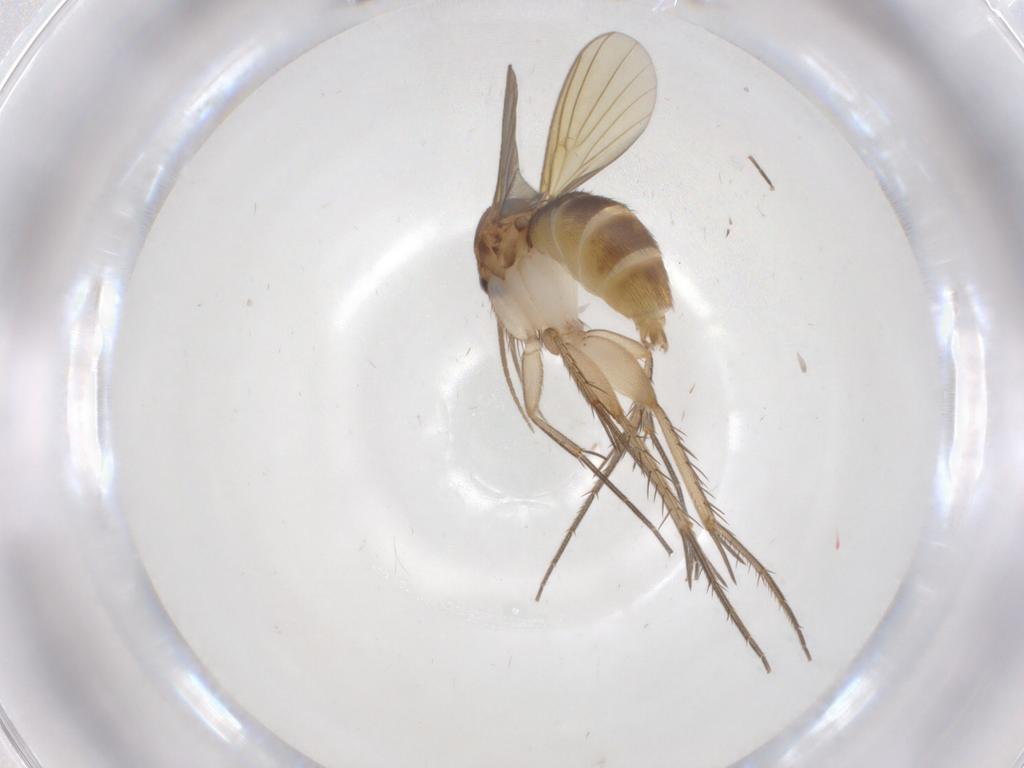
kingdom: Animalia
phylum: Arthropoda
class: Insecta
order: Diptera
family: Mycetophilidae
